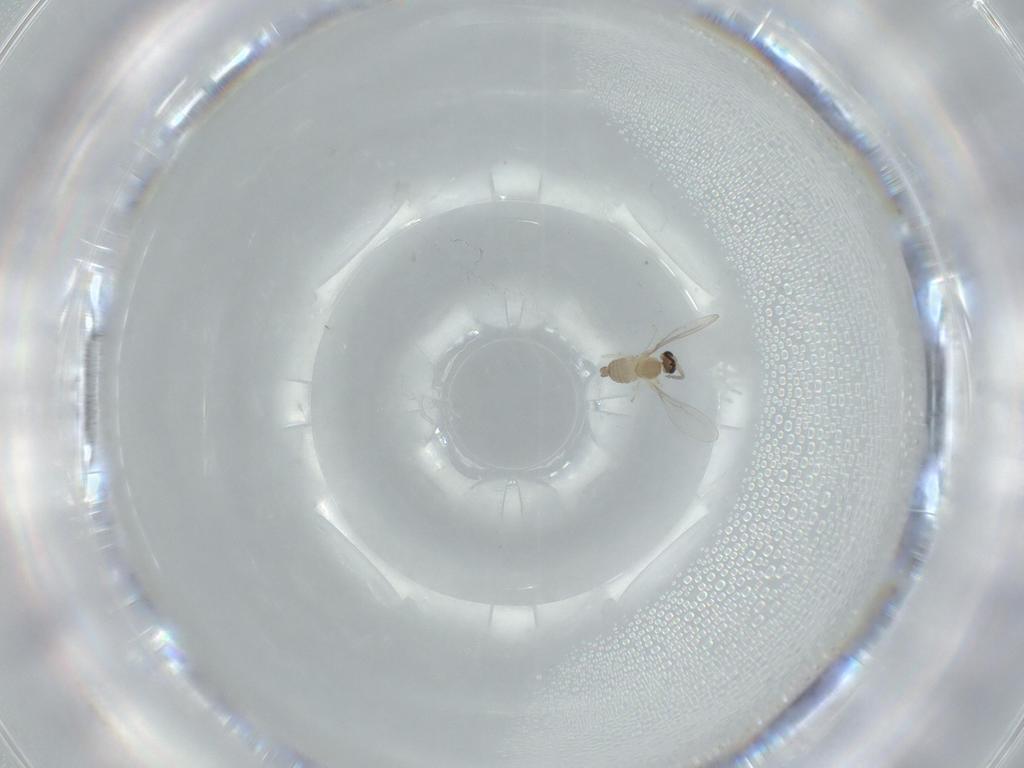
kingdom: Animalia
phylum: Arthropoda
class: Insecta
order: Diptera
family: Cecidomyiidae
